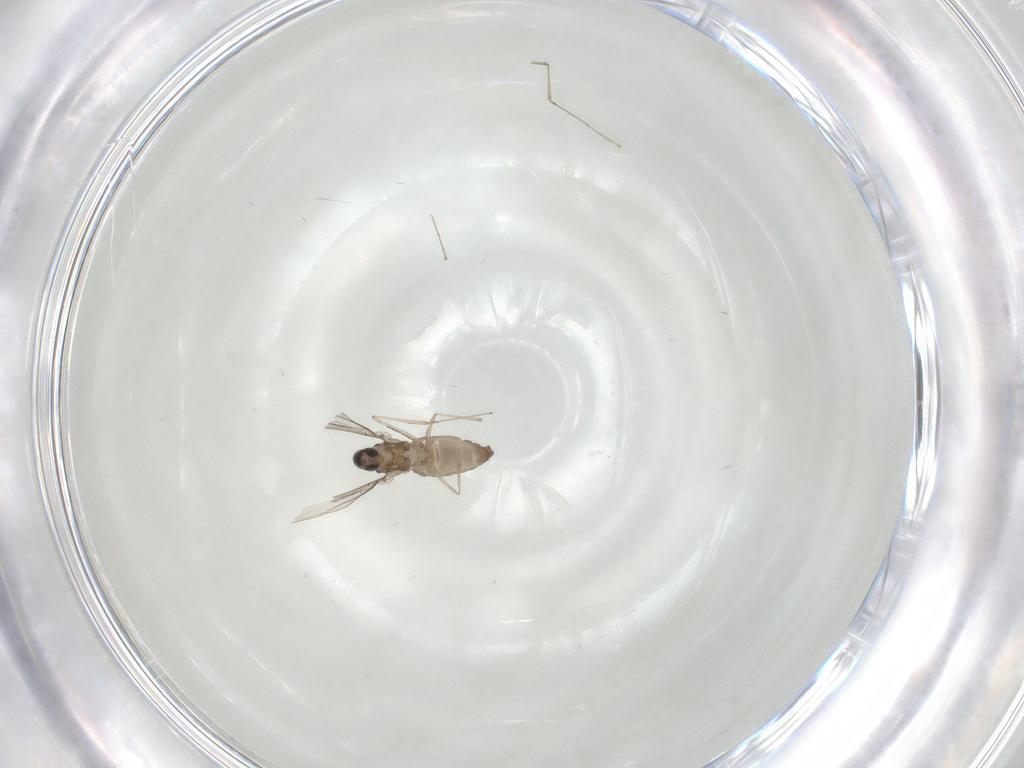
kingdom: Animalia
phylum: Arthropoda
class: Insecta
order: Diptera
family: Cecidomyiidae
